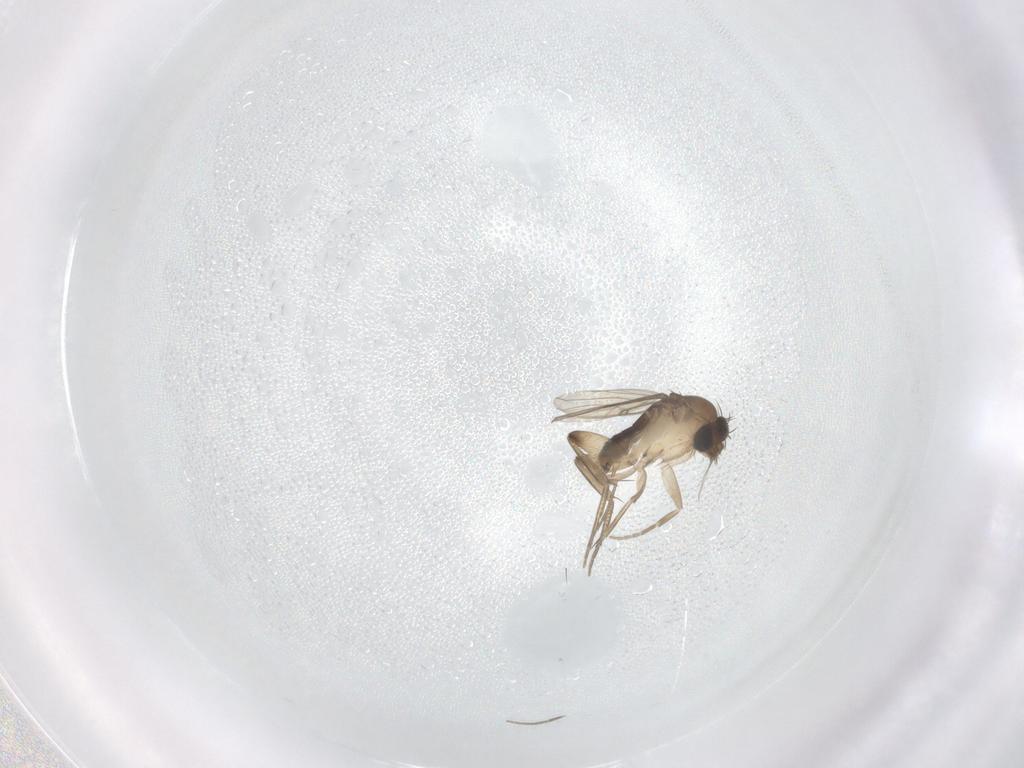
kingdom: Animalia
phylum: Arthropoda
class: Insecta
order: Diptera
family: Phoridae
